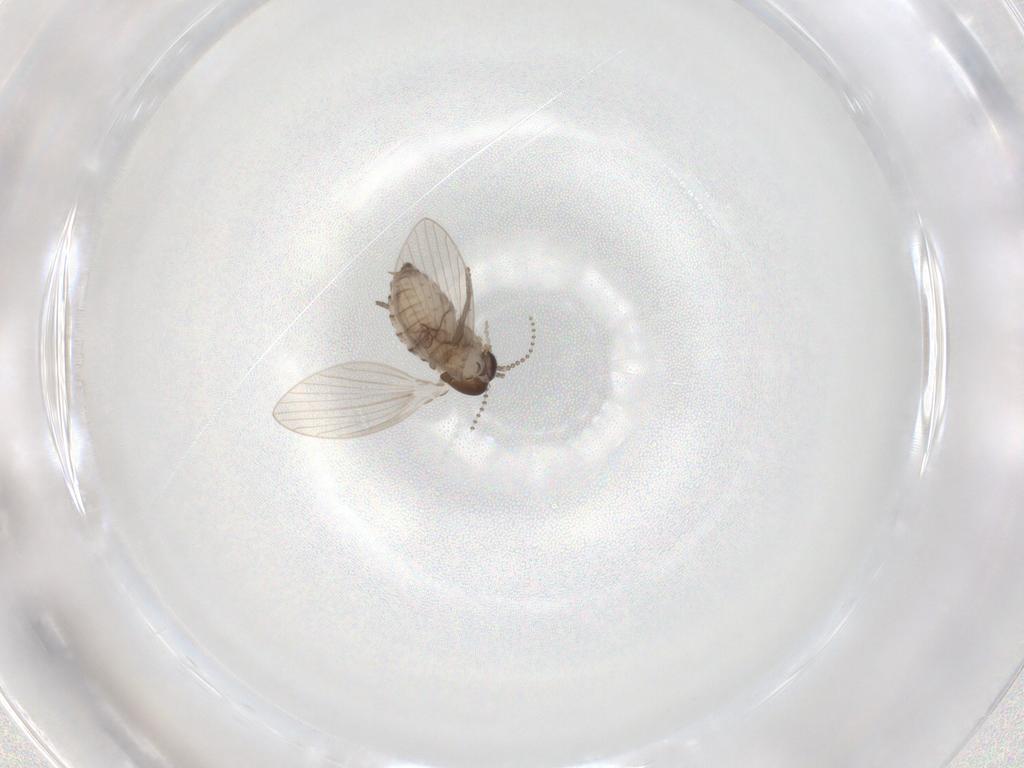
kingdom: Animalia
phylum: Arthropoda
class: Insecta
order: Diptera
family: Psychodidae
